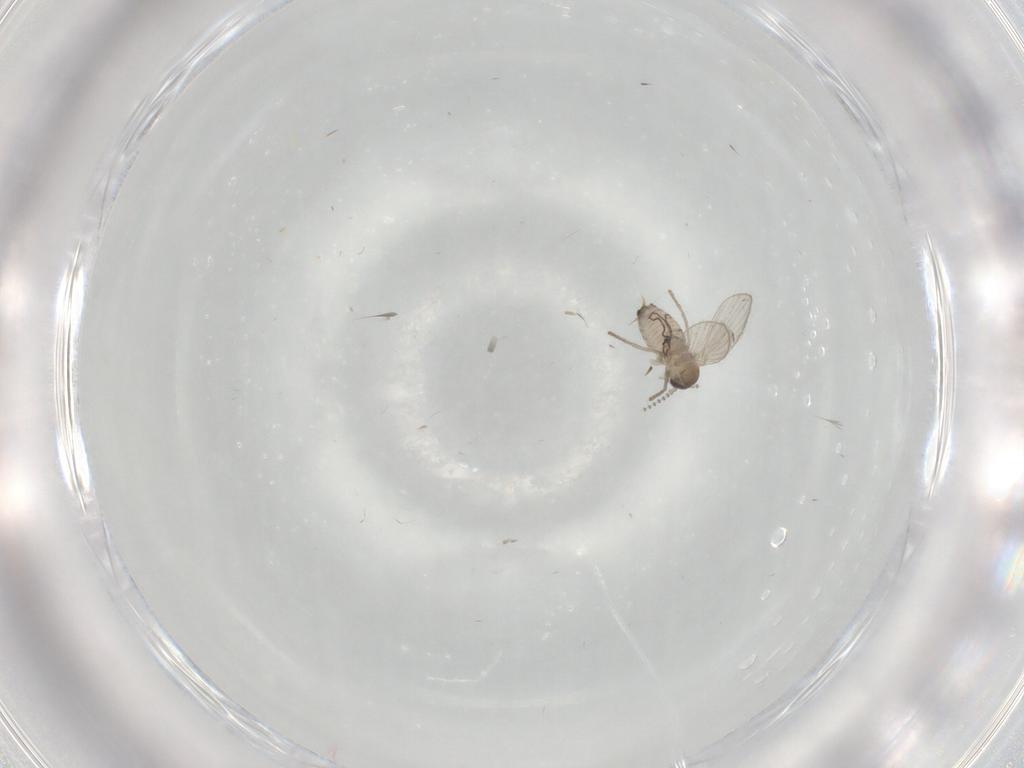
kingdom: Animalia
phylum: Arthropoda
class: Insecta
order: Diptera
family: Psychodidae
